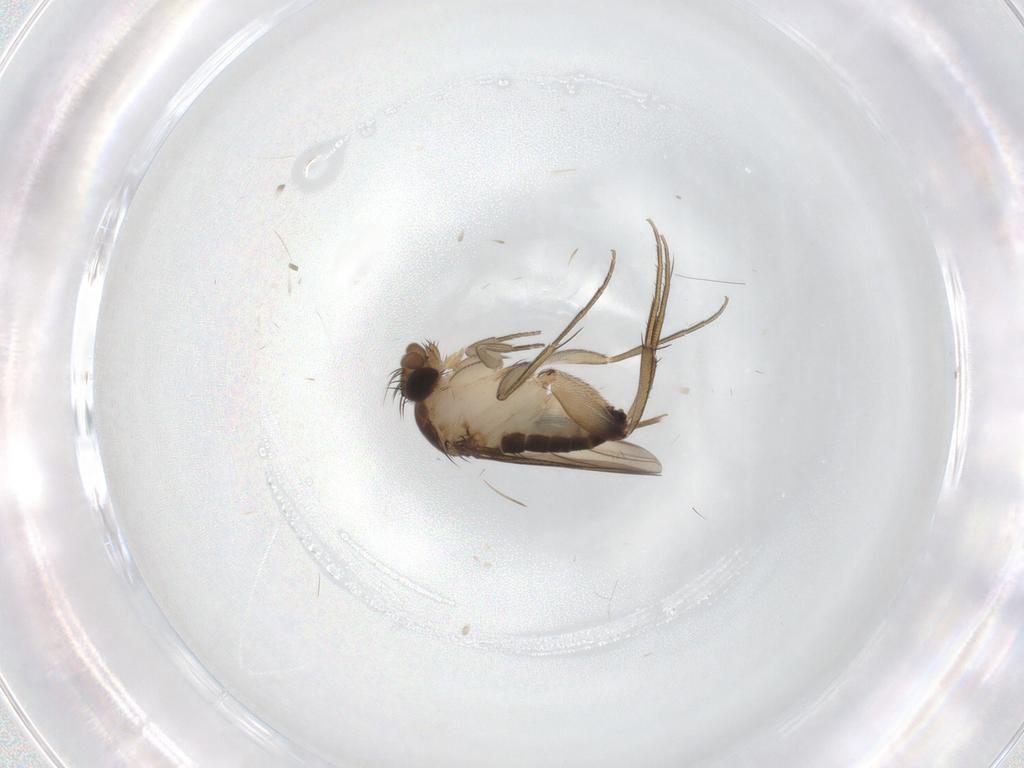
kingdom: Animalia
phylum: Arthropoda
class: Insecta
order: Diptera
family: Phoridae
